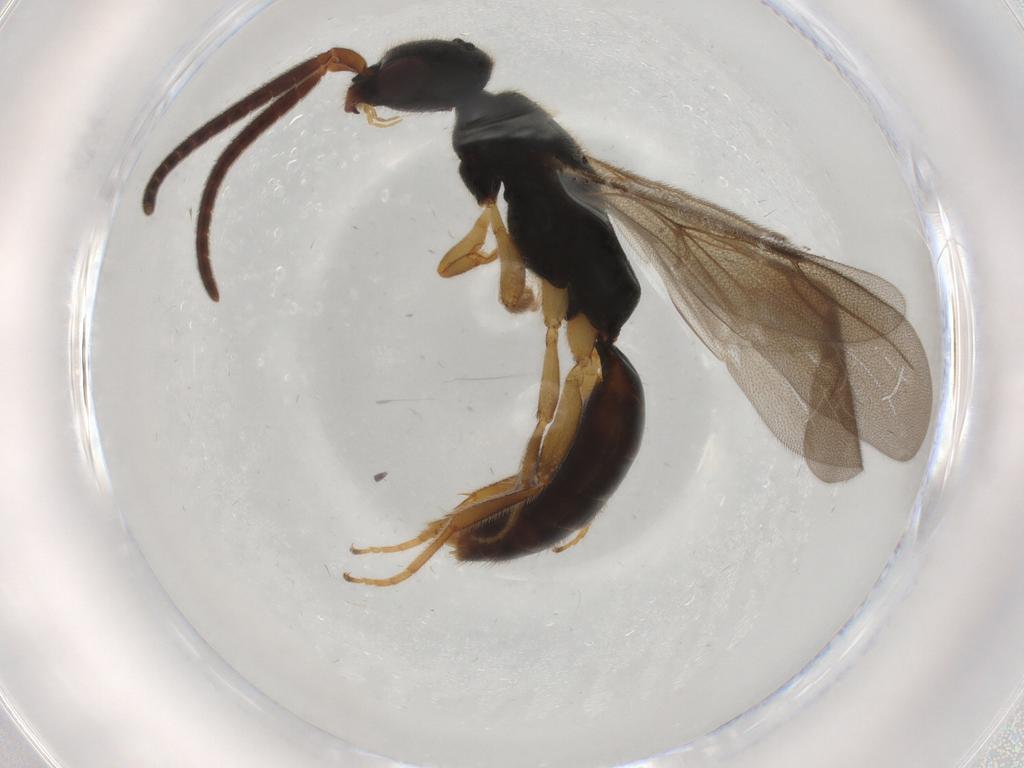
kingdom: Animalia
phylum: Arthropoda
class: Insecta
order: Hymenoptera
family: Bethylidae
